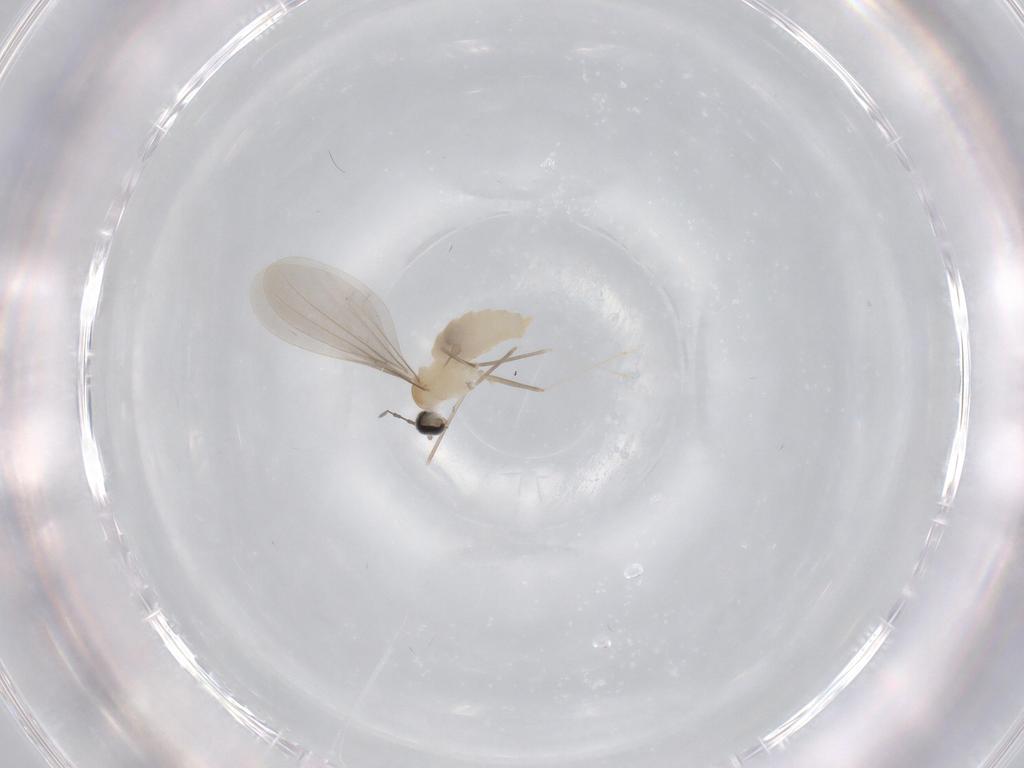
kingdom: Animalia
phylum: Arthropoda
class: Insecta
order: Diptera
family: Cecidomyiidae
